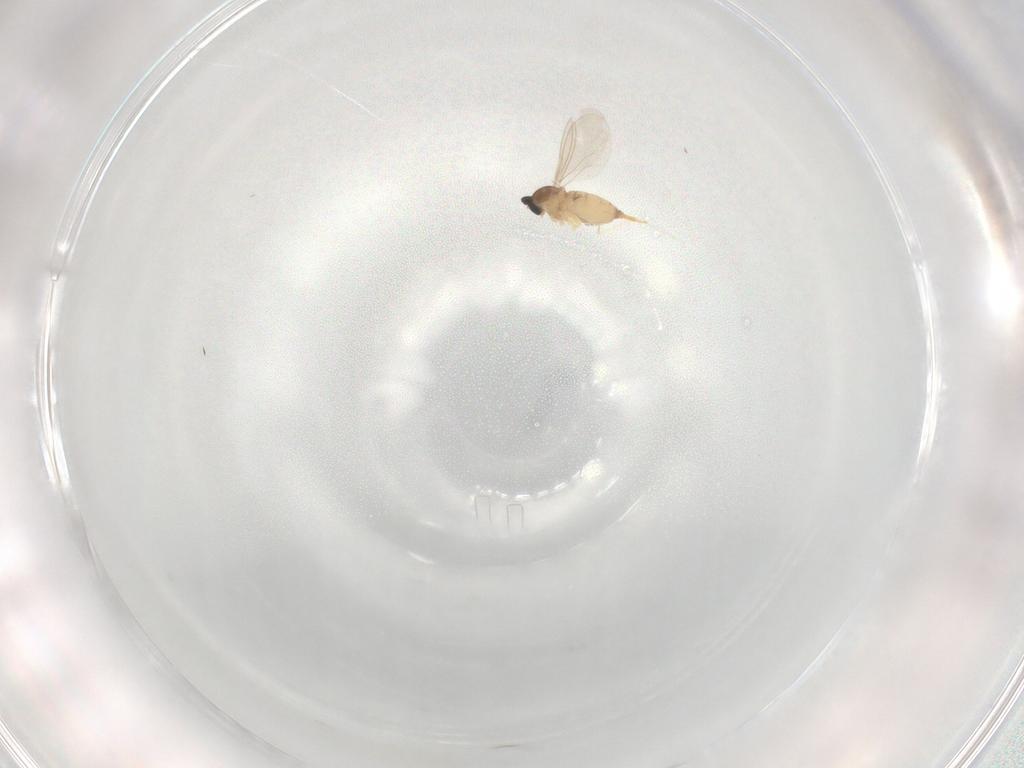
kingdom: Animalia
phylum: Arthropoda
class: Insecta
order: Diptera
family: Cecidomyiidae
